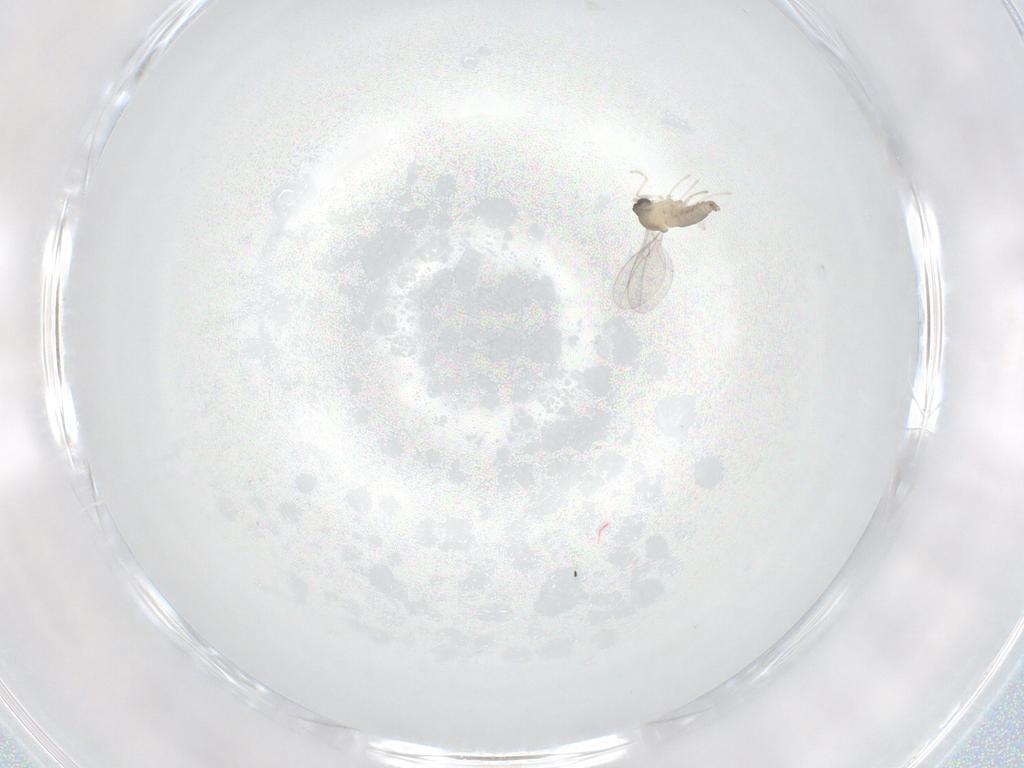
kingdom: Animalia
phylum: Arthropoda
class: Insecta
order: Diptera
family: Cecidomyiidae
